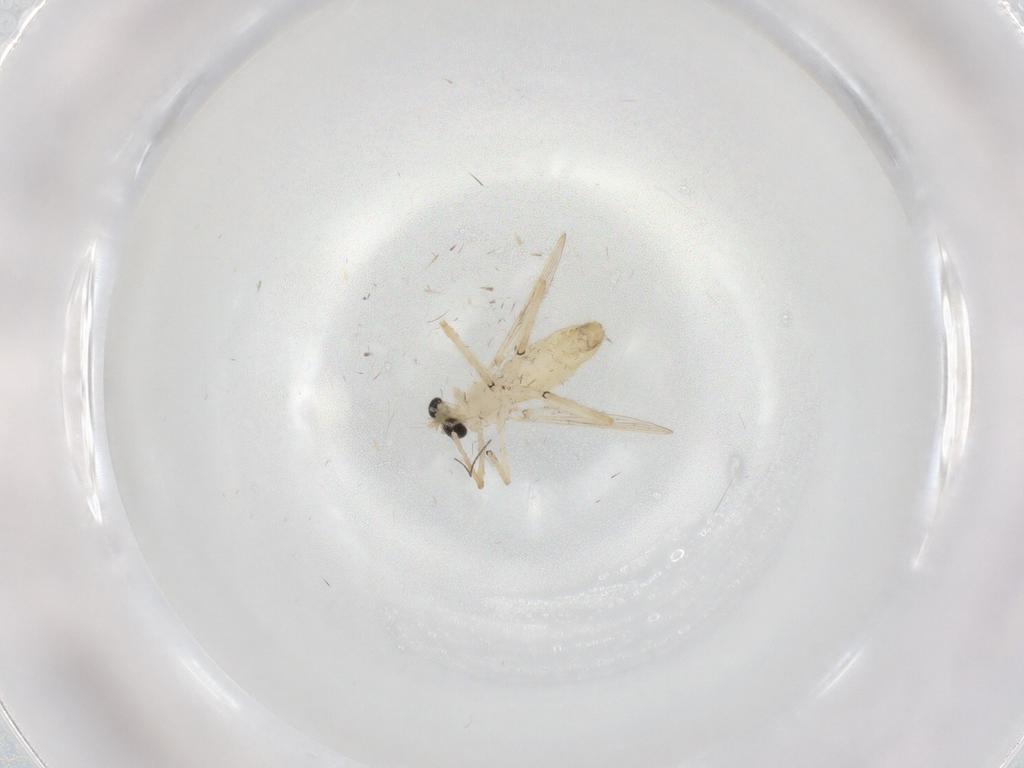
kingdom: Animalia
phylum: Arthropoda
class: Insecta
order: Diptera
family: Chironomidae
